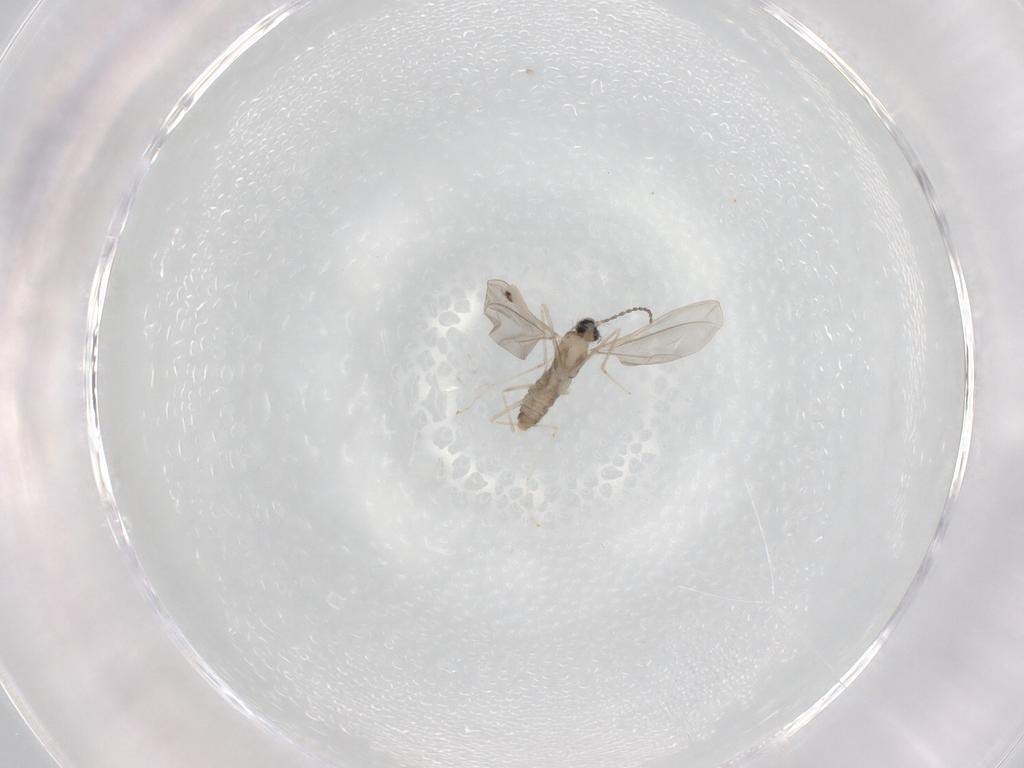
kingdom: Animalia
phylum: Arthropoda
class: Insecta
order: Diptera
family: Cecidomyiidae
